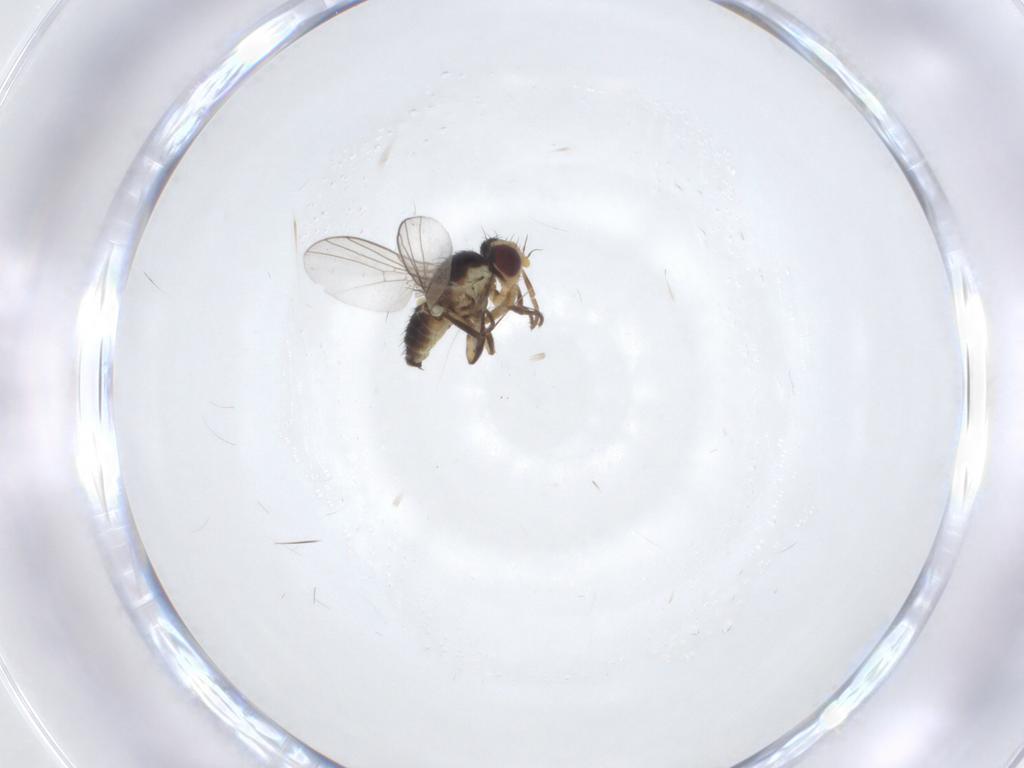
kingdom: Animalia
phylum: Arthropoda
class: Insecta
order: Diptera
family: Agromyzidae
